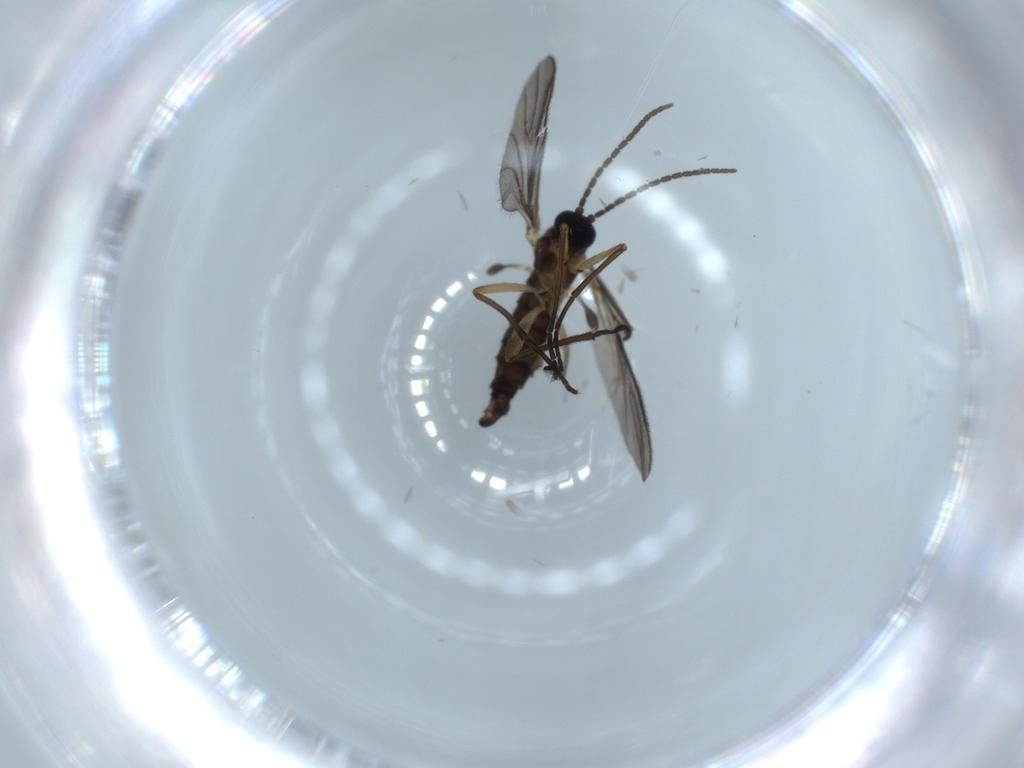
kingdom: Animalia
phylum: Arthropoda
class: Insecta
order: Diptera
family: Sciaridae
